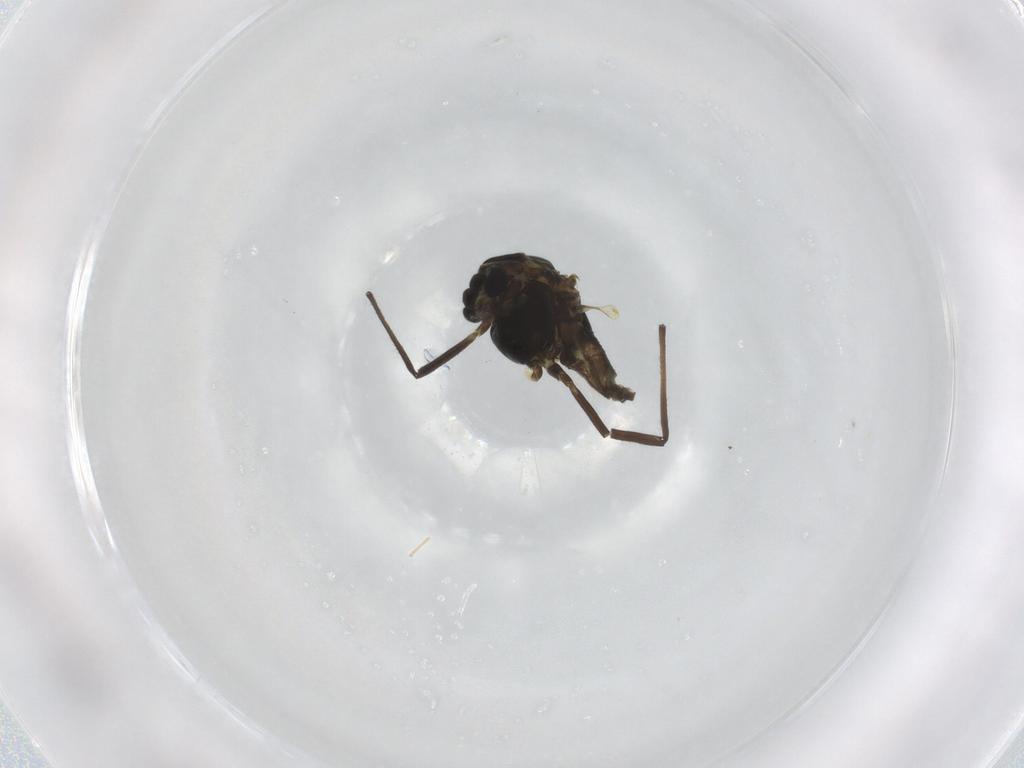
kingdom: Animalia
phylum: Arthropoda
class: Insecta
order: Diptera
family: Chironomidae
